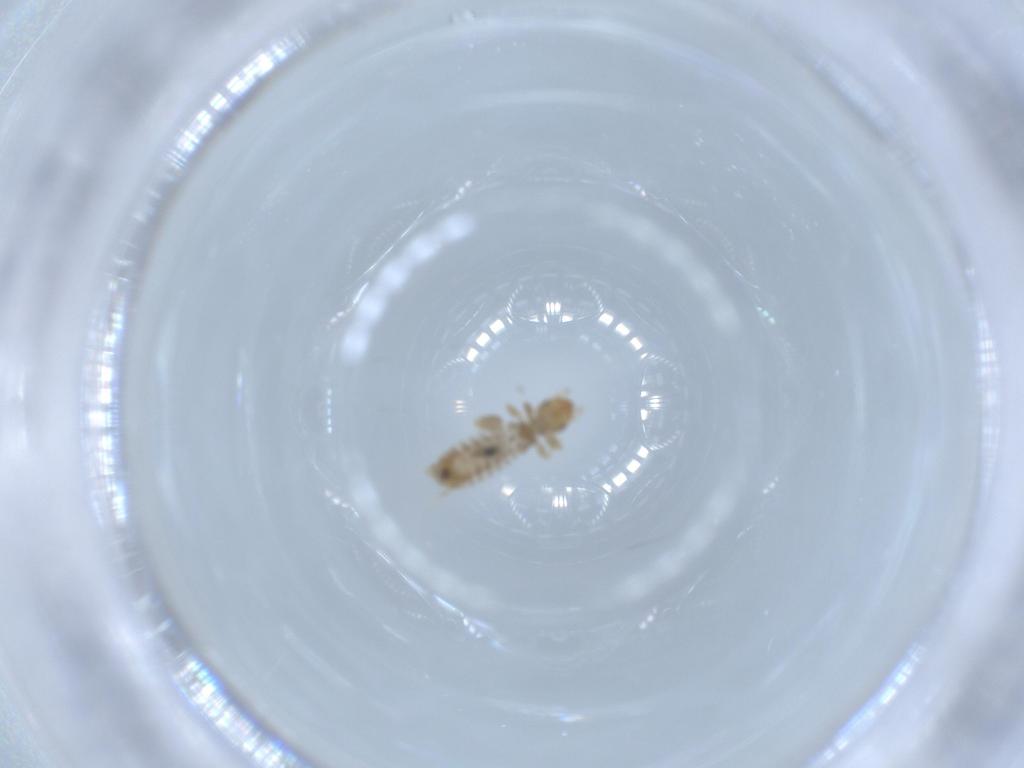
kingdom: Animalia
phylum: Arthropoda
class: Insecta
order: Psocodea
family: Liposcelididae
